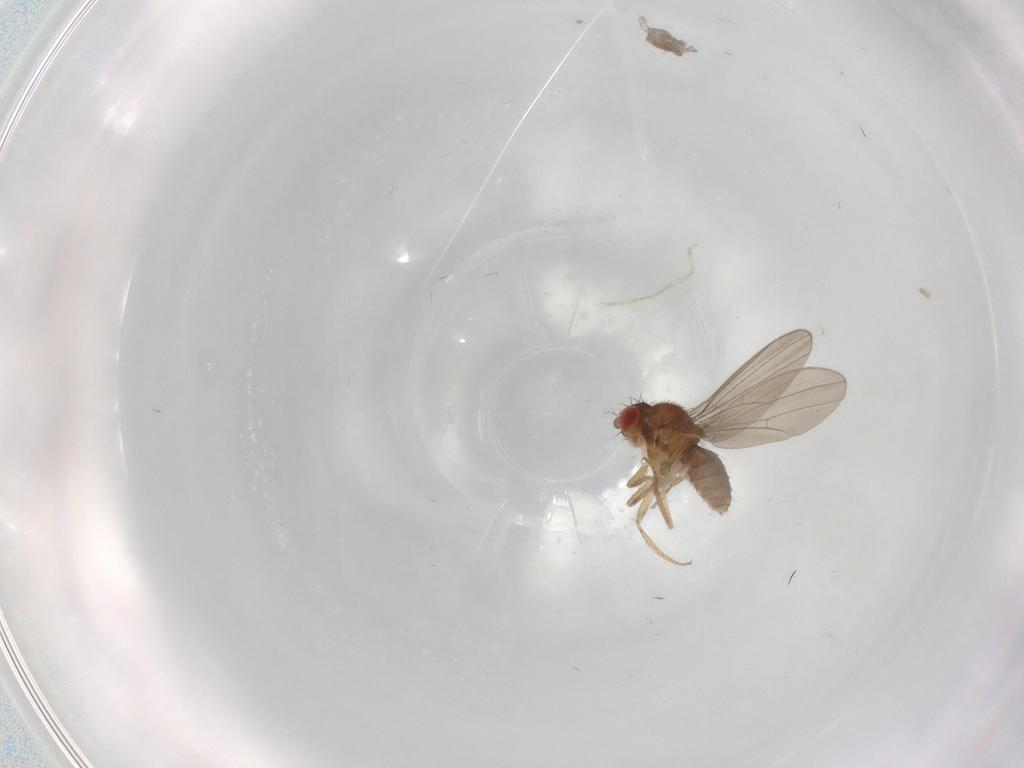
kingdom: Animalia
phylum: Arthropoda
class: Insecta
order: Diptera
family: Drosophilidae
